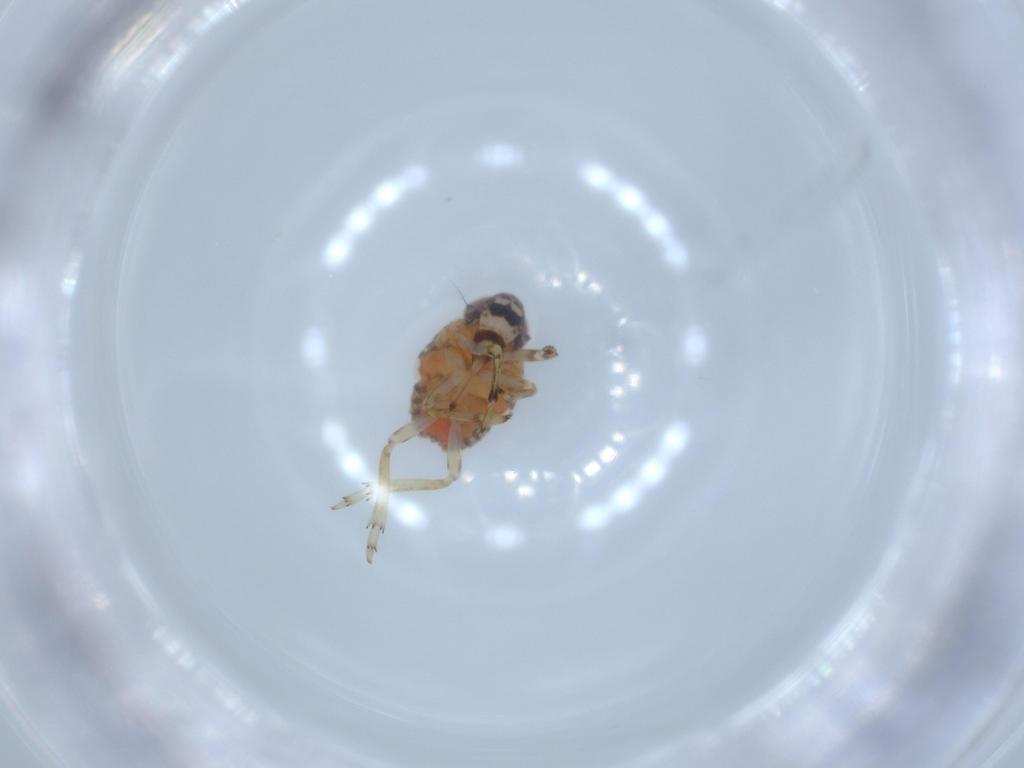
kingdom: Animalia
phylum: Arthropoda
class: Insecta
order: Hemiptera
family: Issidae
